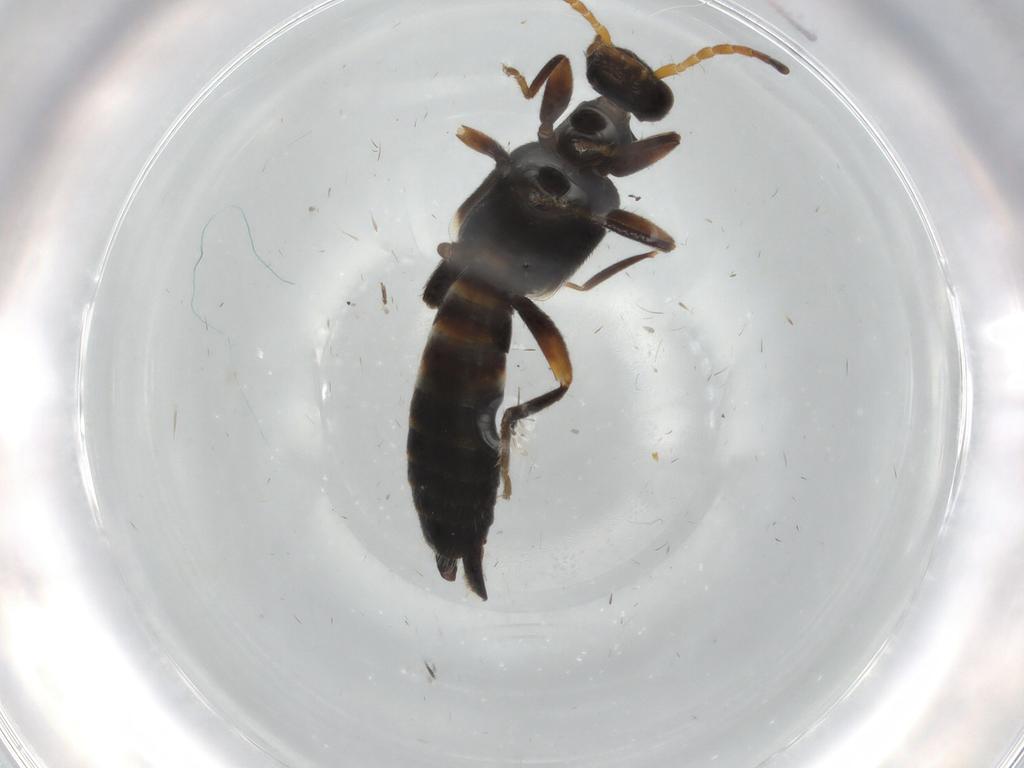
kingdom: Animalia
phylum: Arthropoda
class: Insecta
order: Dermaptera
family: Forficulidae
